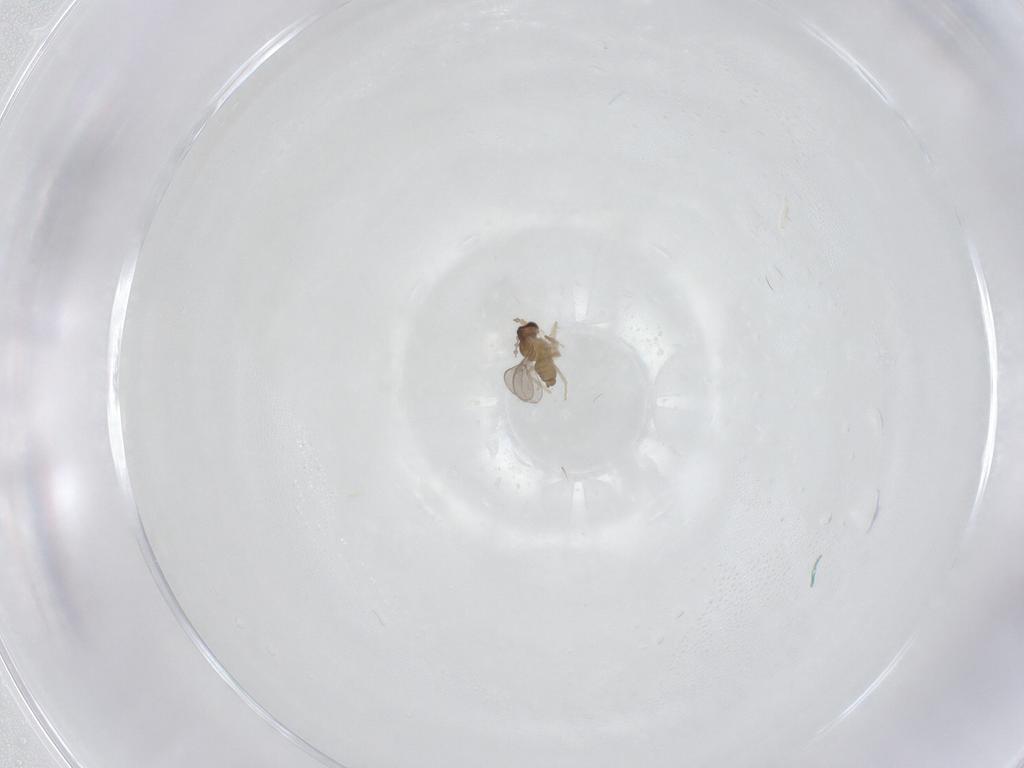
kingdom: Animalia
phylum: Arthropoda
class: Insecta
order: Diptera
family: Cecidomyiidae
